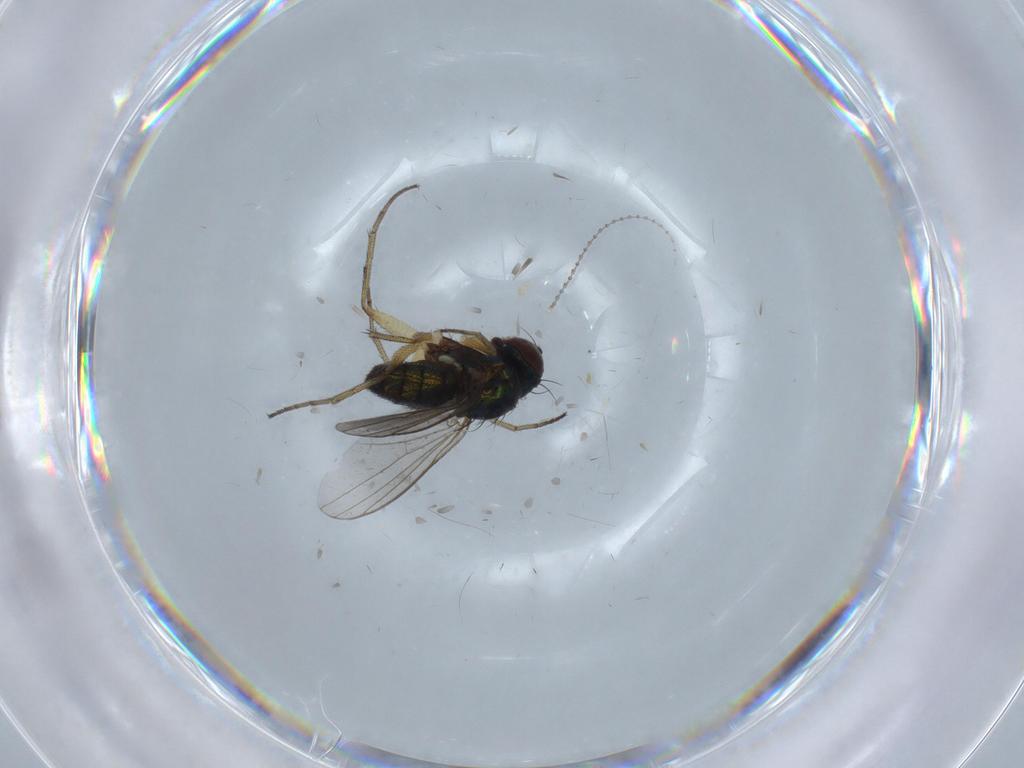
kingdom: Animalia
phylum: Arthropoda
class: Insecta
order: Diptera
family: Cecidomyiidae
